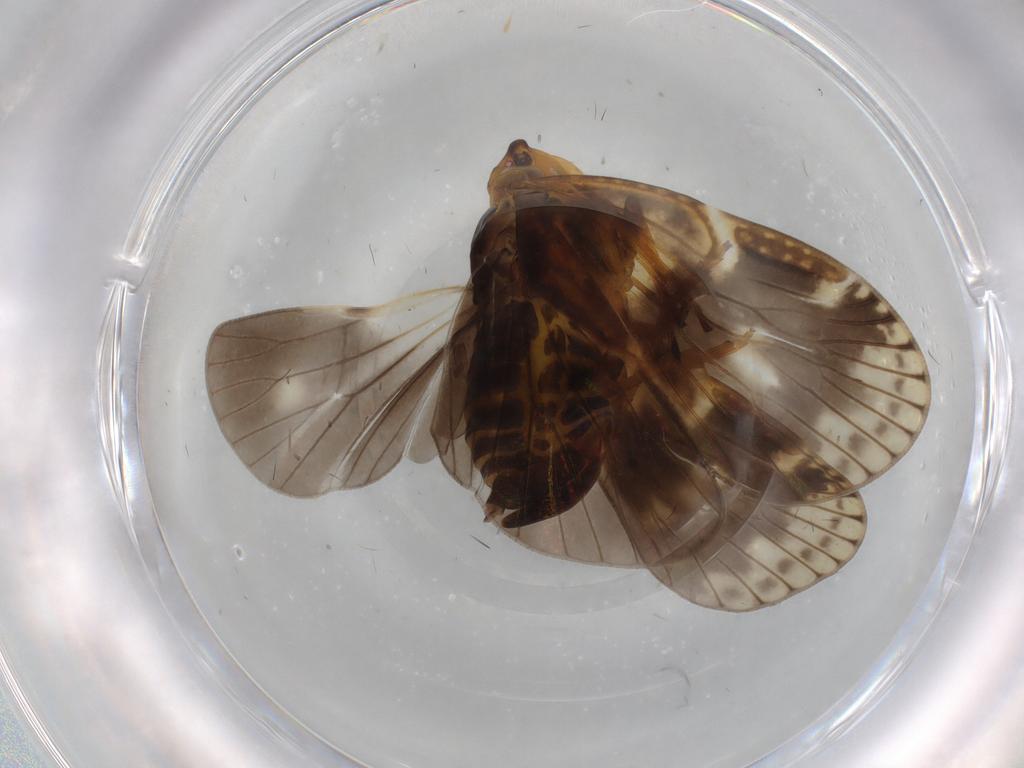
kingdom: Animalia
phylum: Arthropoda
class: Insecta
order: Hemiptera
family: Cixiidae
